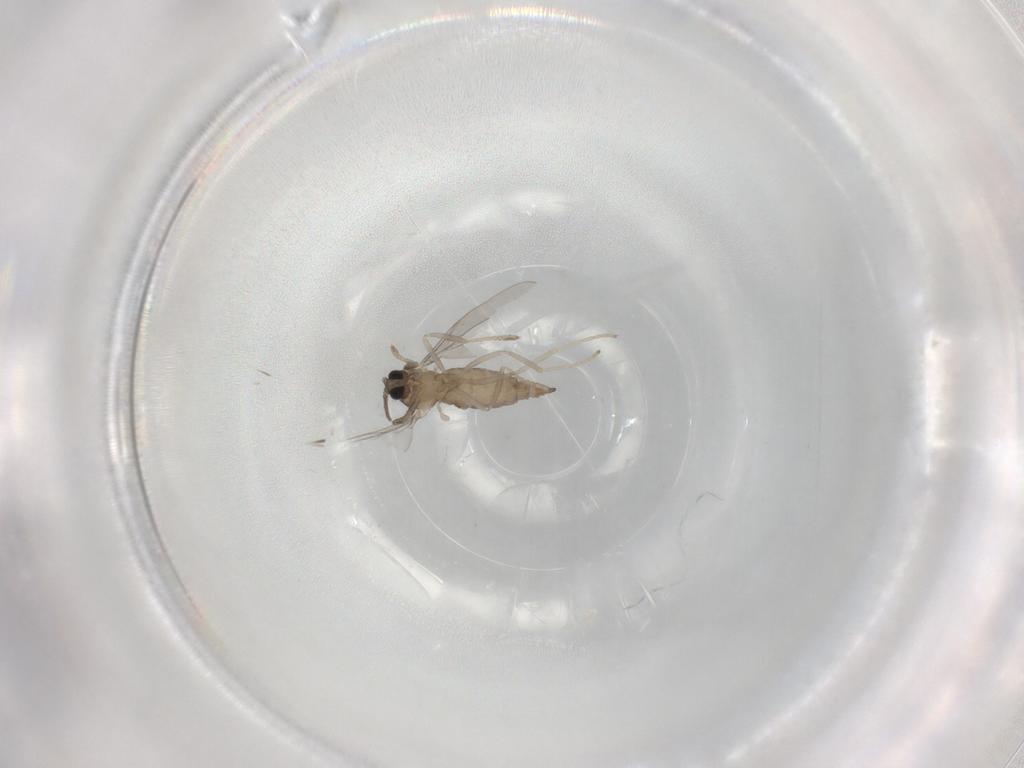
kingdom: Animalia
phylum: Arthropoda
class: Insecta
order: Diptera
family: Cecidomyiidae
